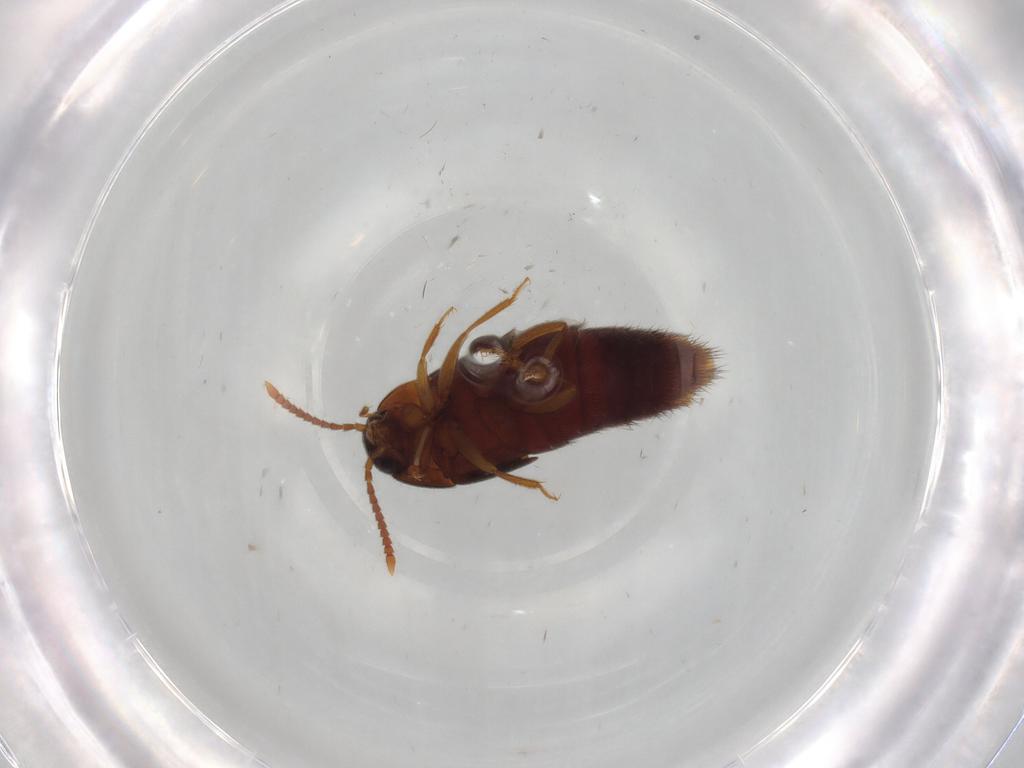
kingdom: Animalia
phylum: Arthropoda
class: Insecta
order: Coleoptera
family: Staphylinidae
